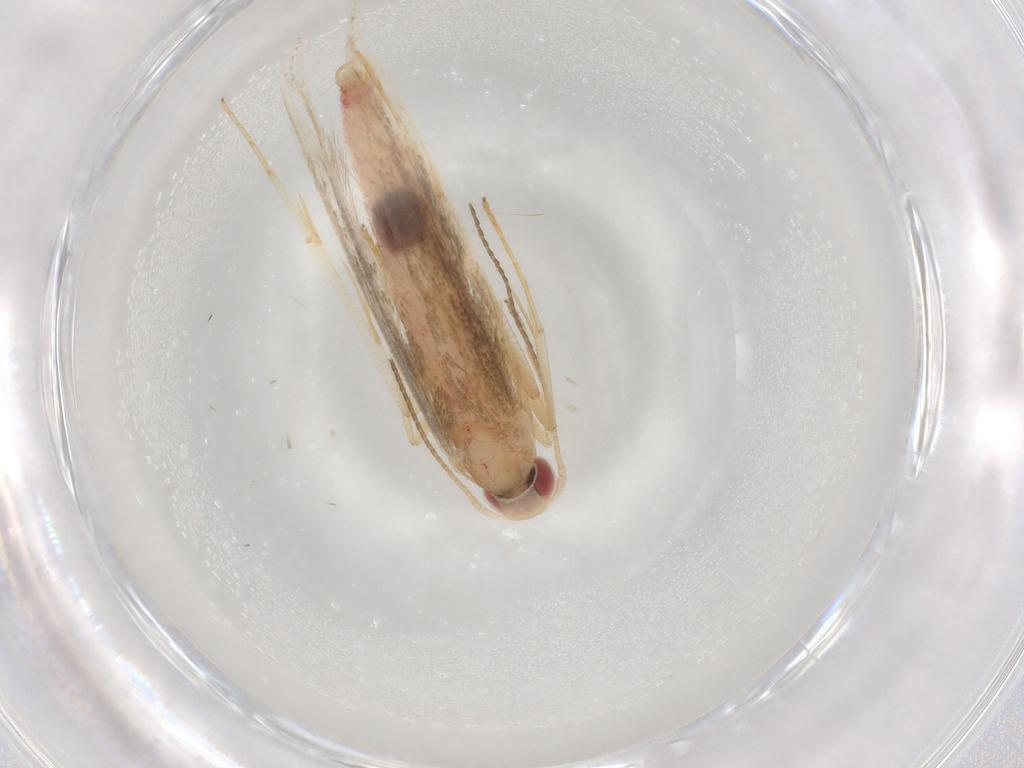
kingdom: Animalia
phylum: Arthropoda
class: Insecta
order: Lepidoptera
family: Cosmopterigidae
